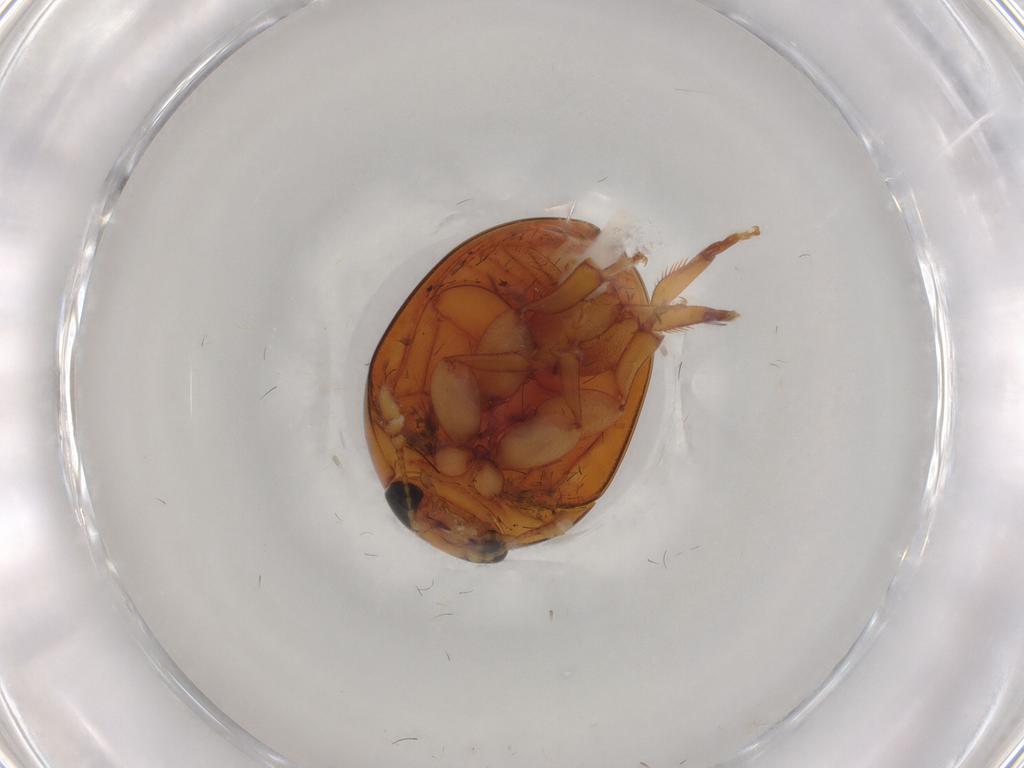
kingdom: Animalia
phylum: Arthropoda
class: Insecta
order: Coleoptera
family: Phalacridae
